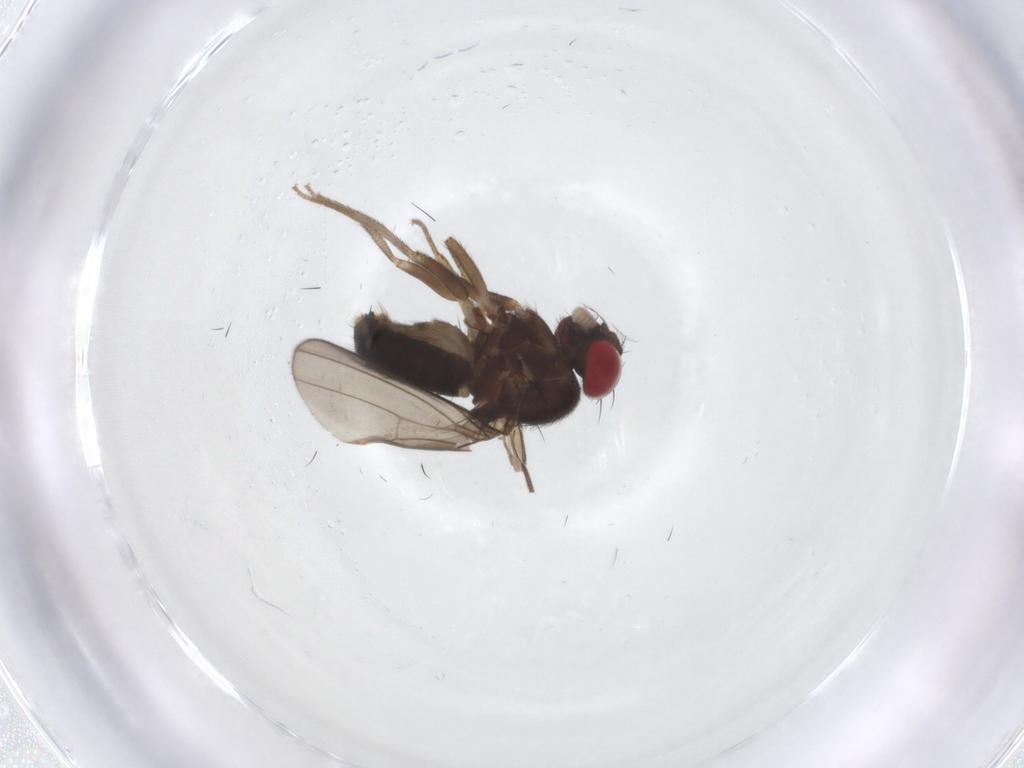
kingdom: Animalia
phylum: Arthropoda
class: Insecta
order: Diptera
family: Drosophilidae
